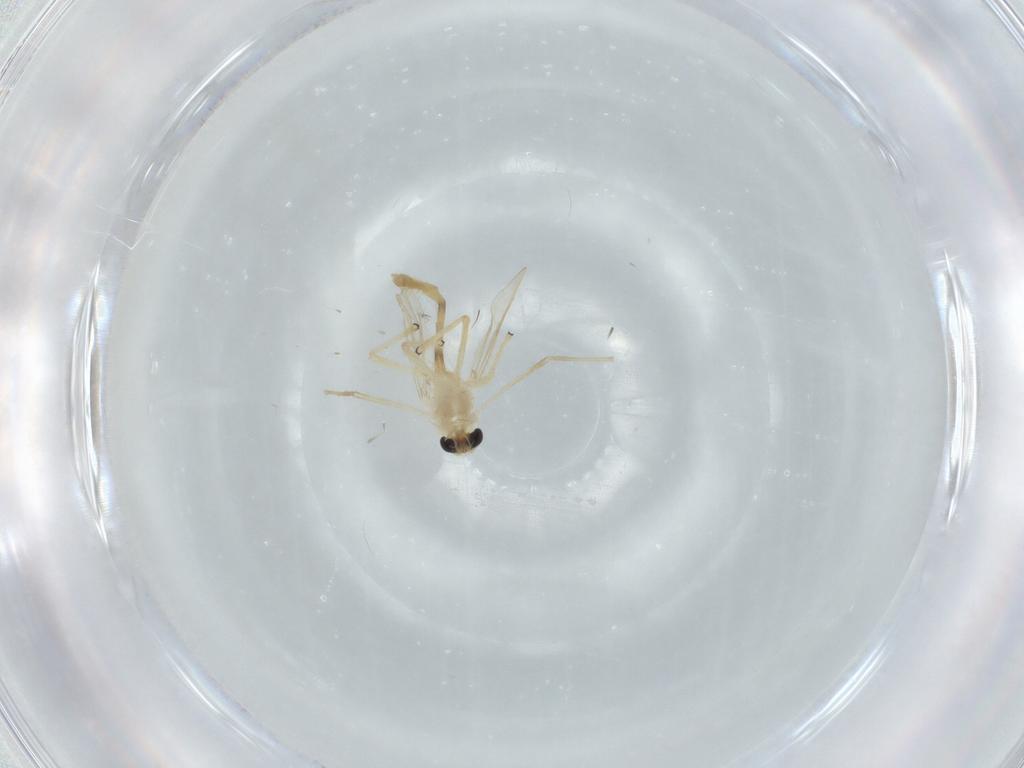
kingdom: Animalia
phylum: Arthropoda
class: Insecta
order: Diptera
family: Chironomidae
